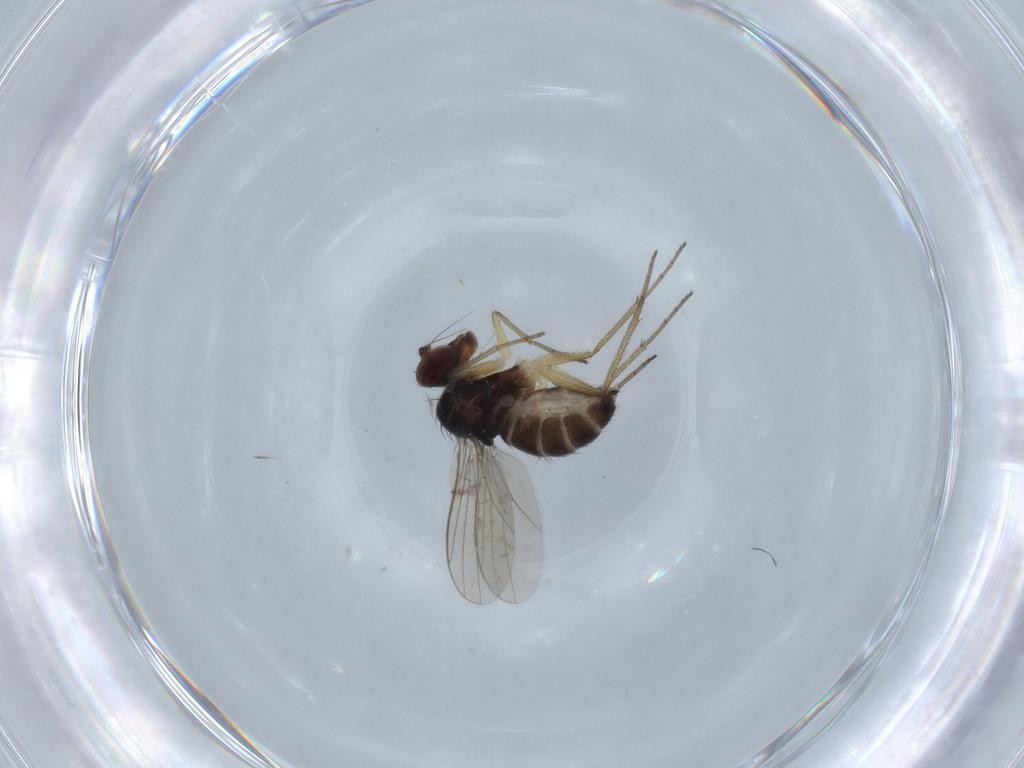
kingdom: Animalia
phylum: Arthropoda
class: Insecta
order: Diptera
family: Dolichopodidae
